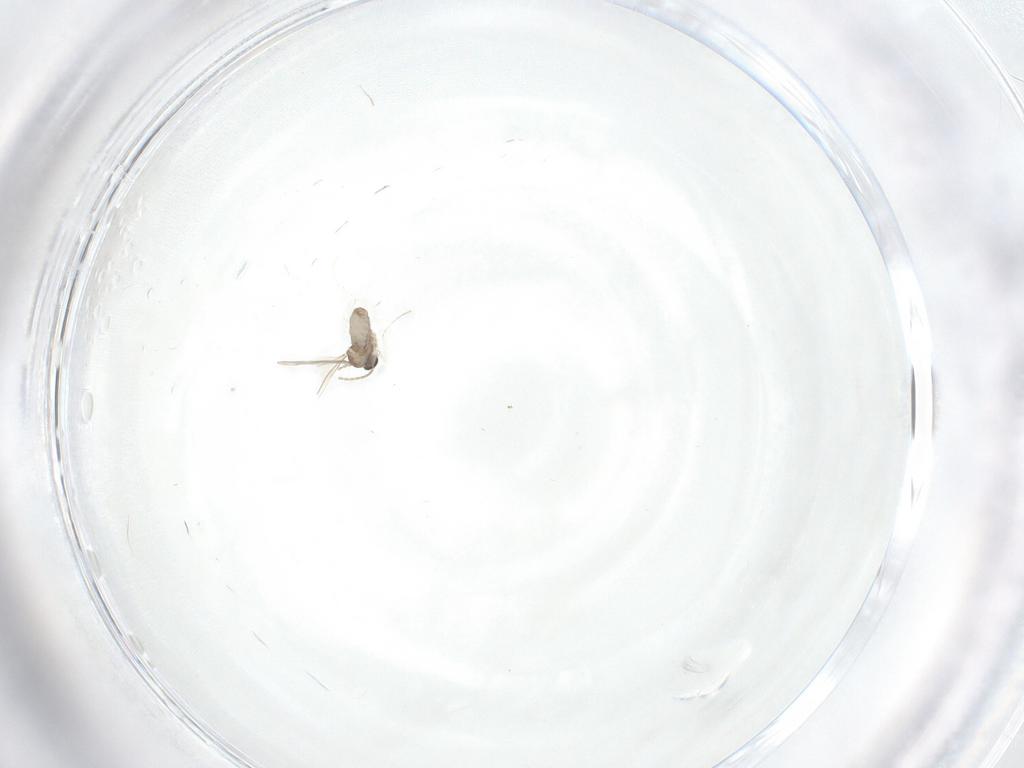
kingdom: Animalia
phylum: Arthropoda
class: Insecta
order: Diptera
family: Cecidomyiidae
